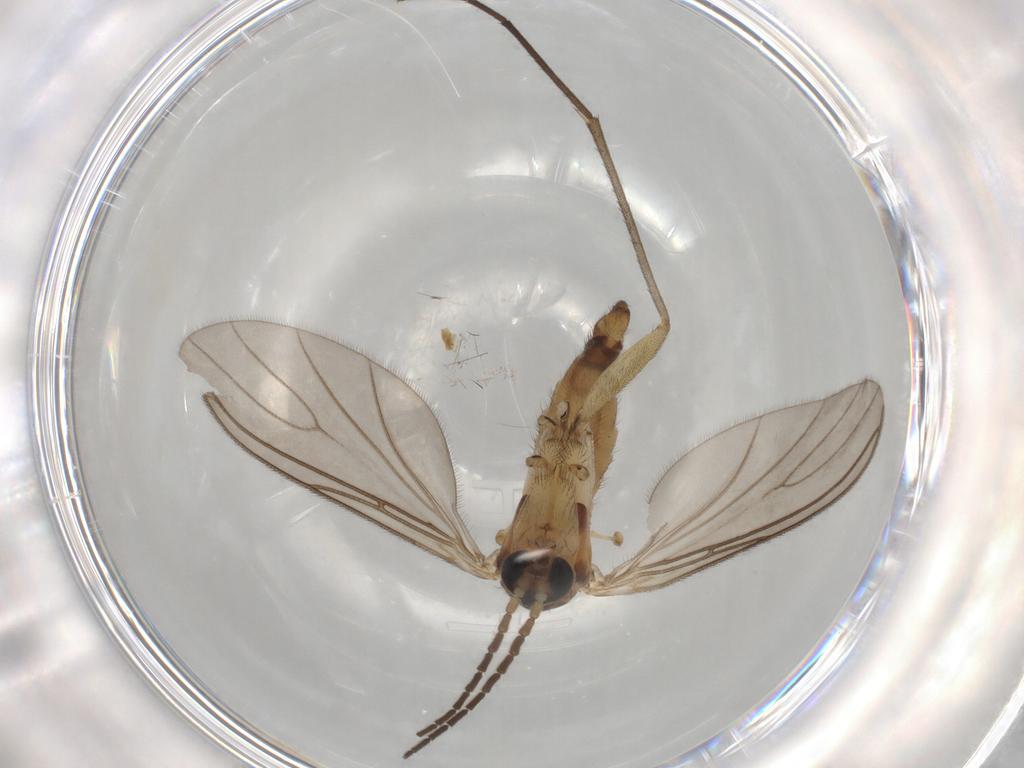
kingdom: Animalia
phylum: Arthropoda
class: Insecta
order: Diptera
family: Sciaridae
